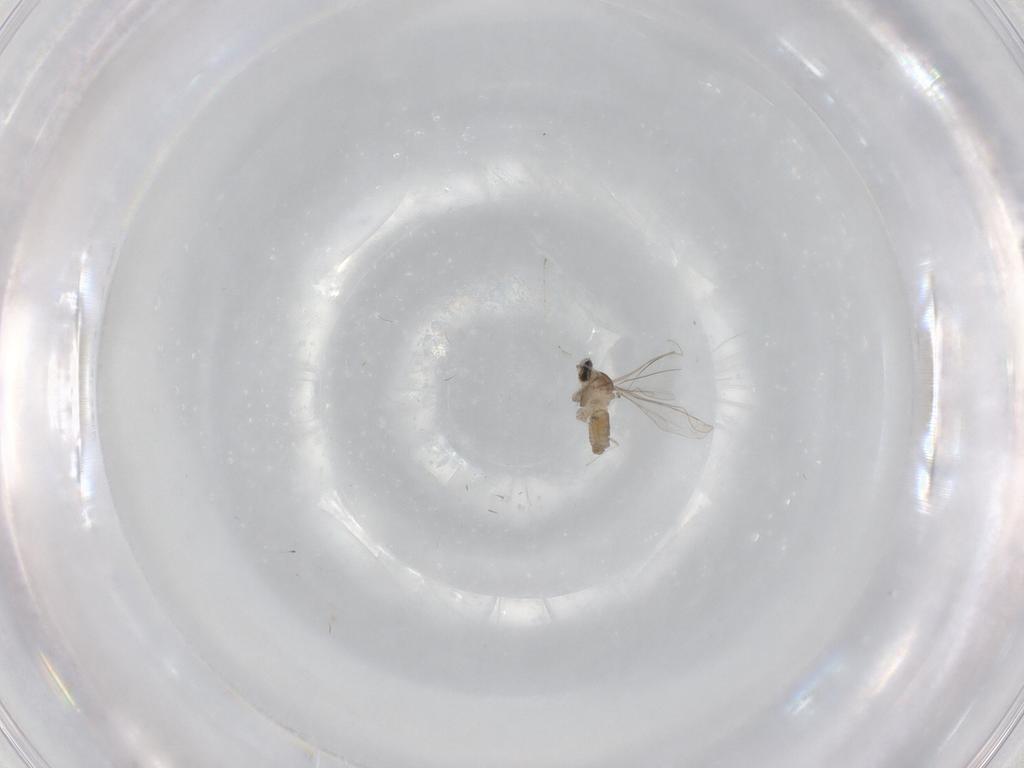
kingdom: Animalia
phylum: Arthropoda
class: Insecta
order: Diptera
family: Cecidomyiidae
